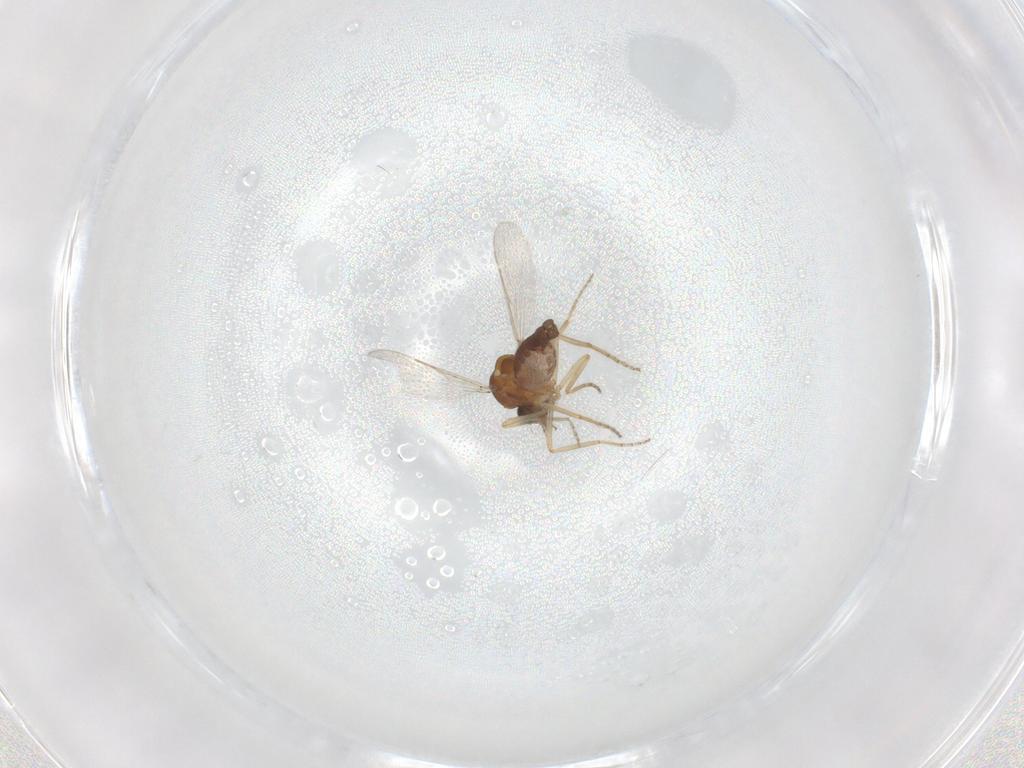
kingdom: Animalia
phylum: Arthropoda
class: Insecta
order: Diptera
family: Ceratopogonidae
